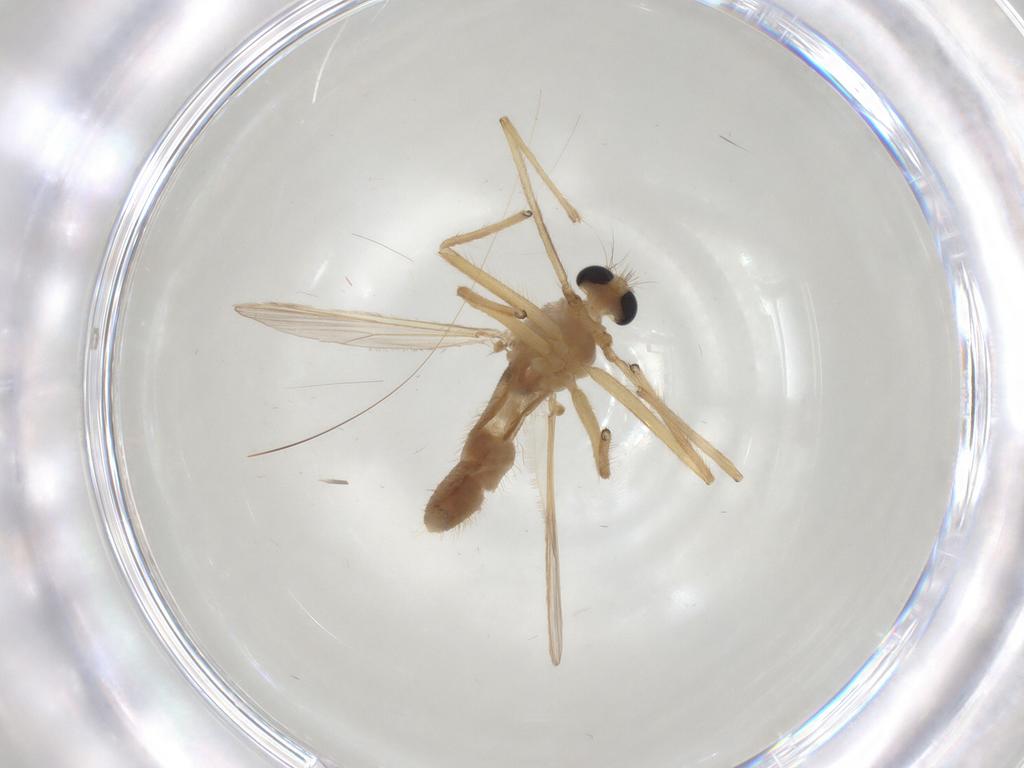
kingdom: Animalia
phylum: Arthropoda
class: Insecta
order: Diptera
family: Chironomidae
